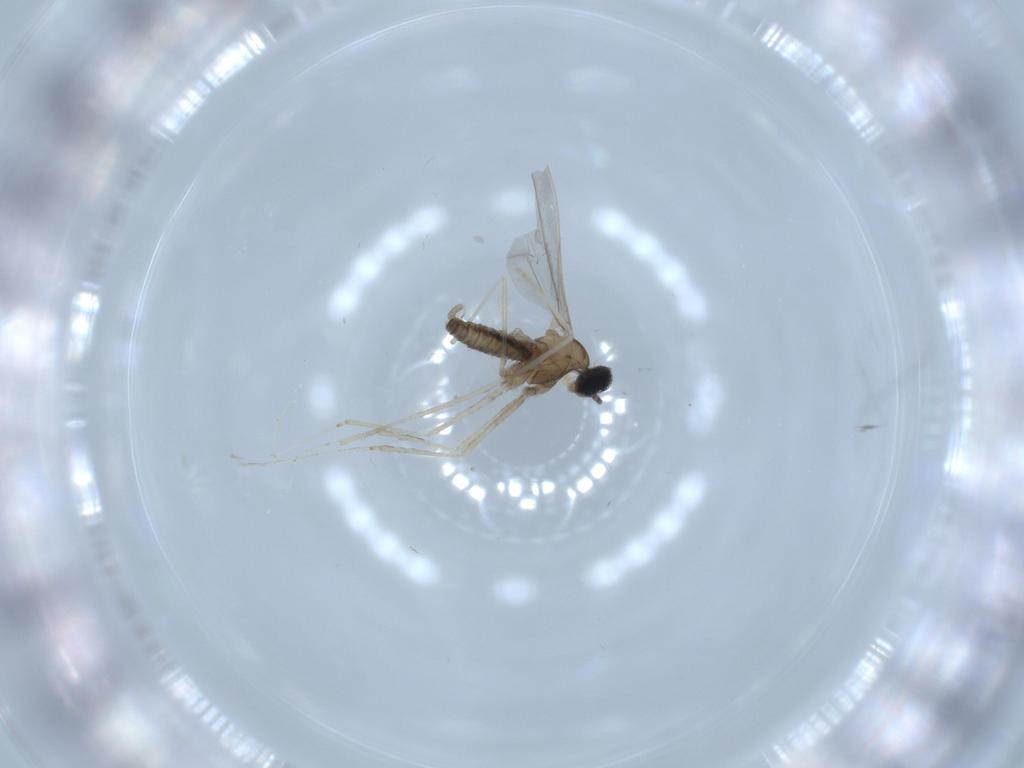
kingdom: Animalia
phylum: Arthropoda
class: Insecta
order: Diptera
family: Cecidomyiidae
